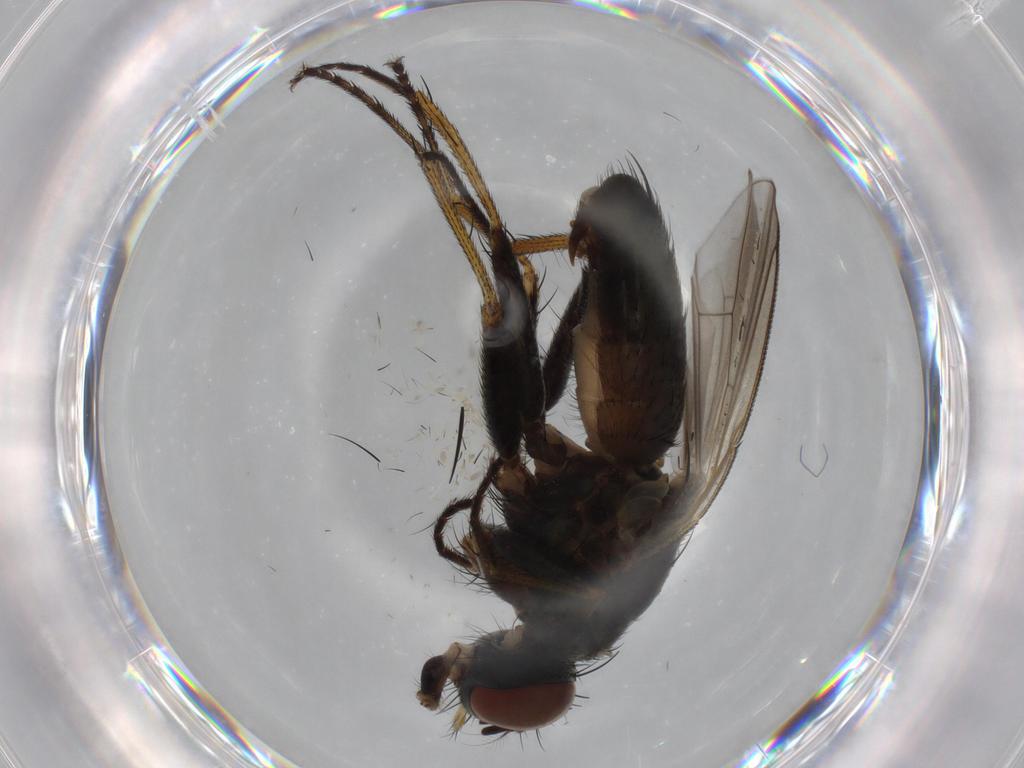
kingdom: Animalia
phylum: Arthropoda
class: Insecta
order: Diptera
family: Muscidae
